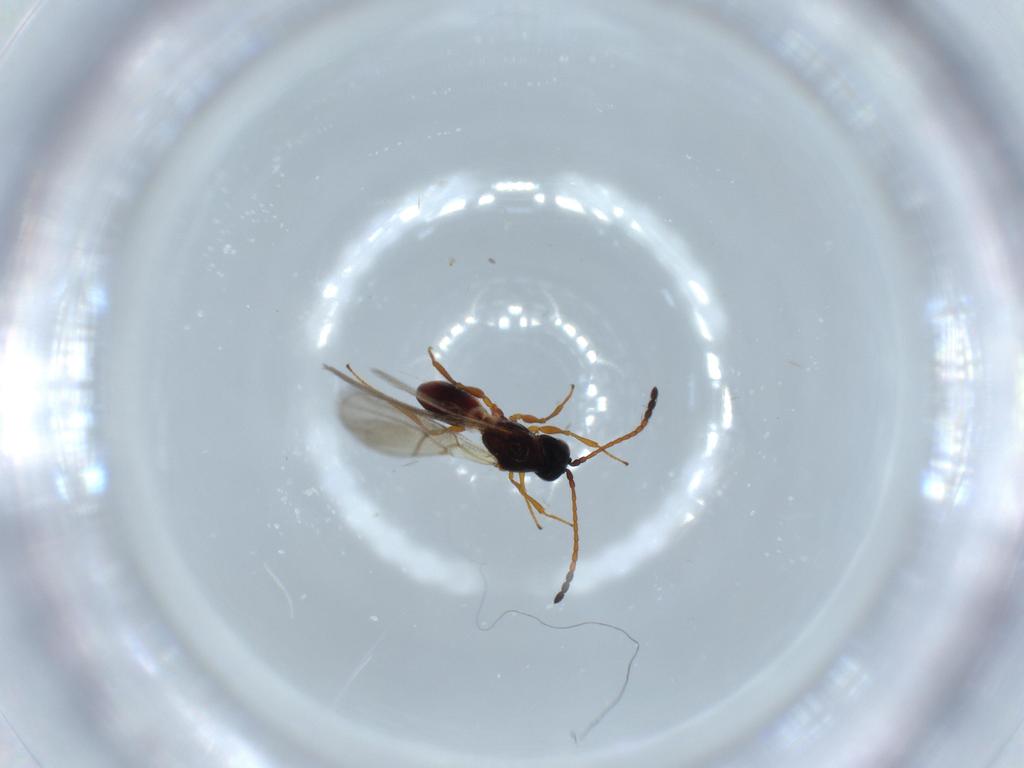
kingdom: Animalia
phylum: Arthropoda
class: Insecta
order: Hymenoptera
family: Figitidae
